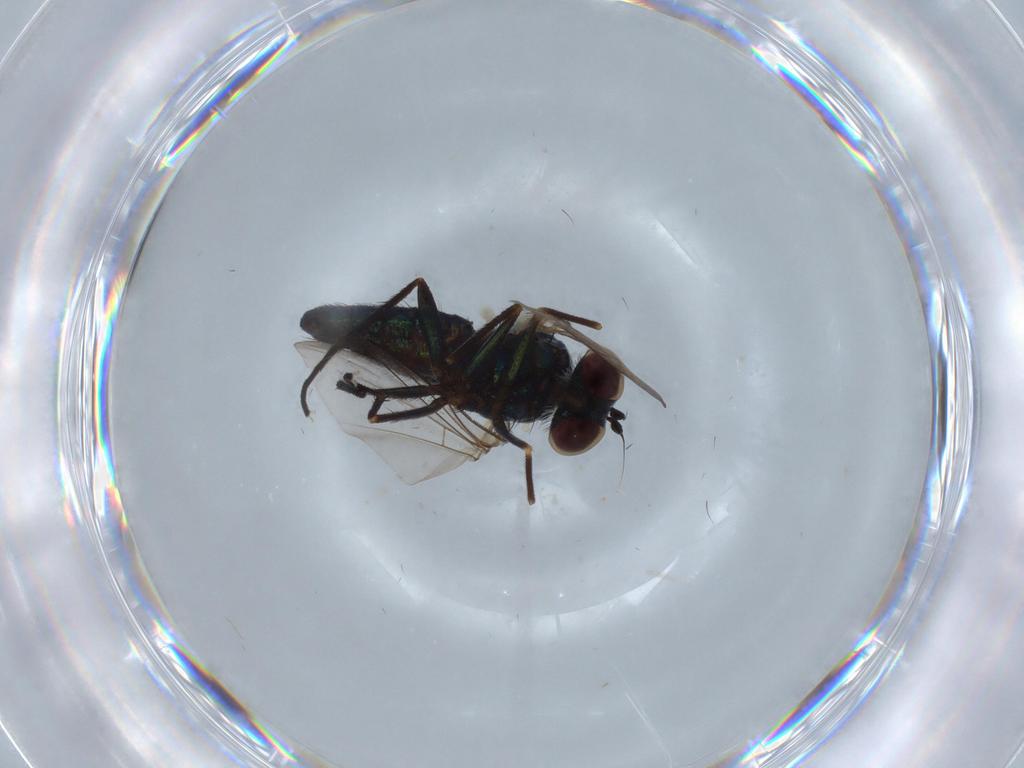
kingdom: Animalia
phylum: Arthropoda
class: Insecta
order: Diptera
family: Dolichopodidae
